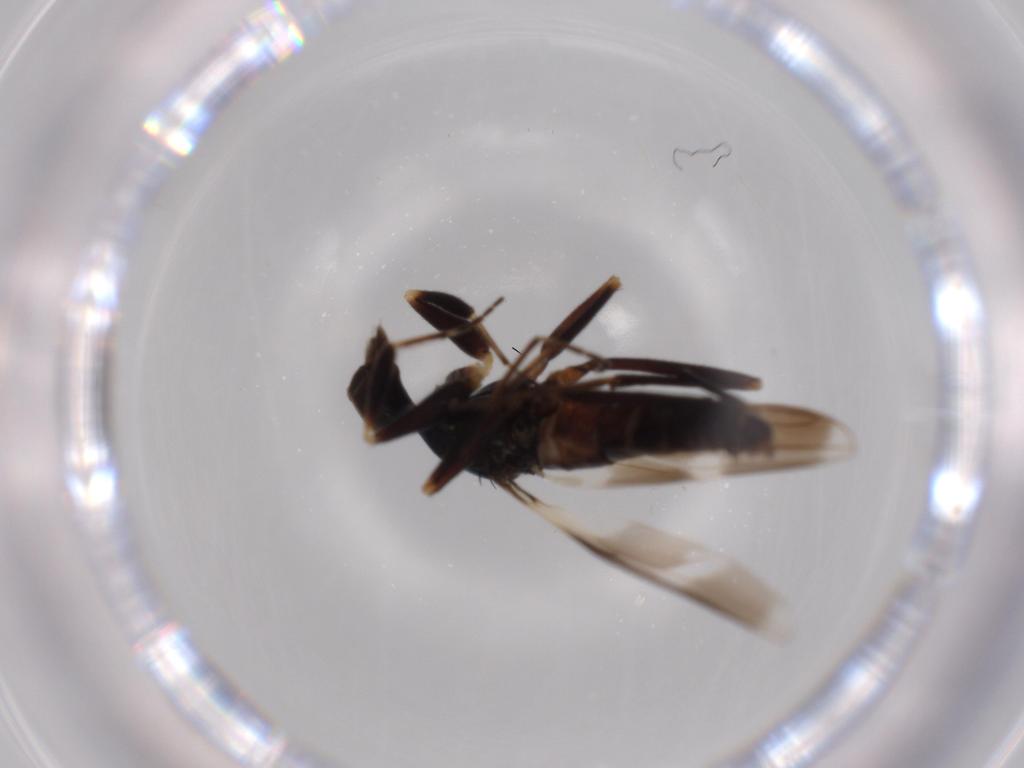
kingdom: Animalia
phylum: Arthropoda
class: Insecta
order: Diptera
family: Hybotidae
